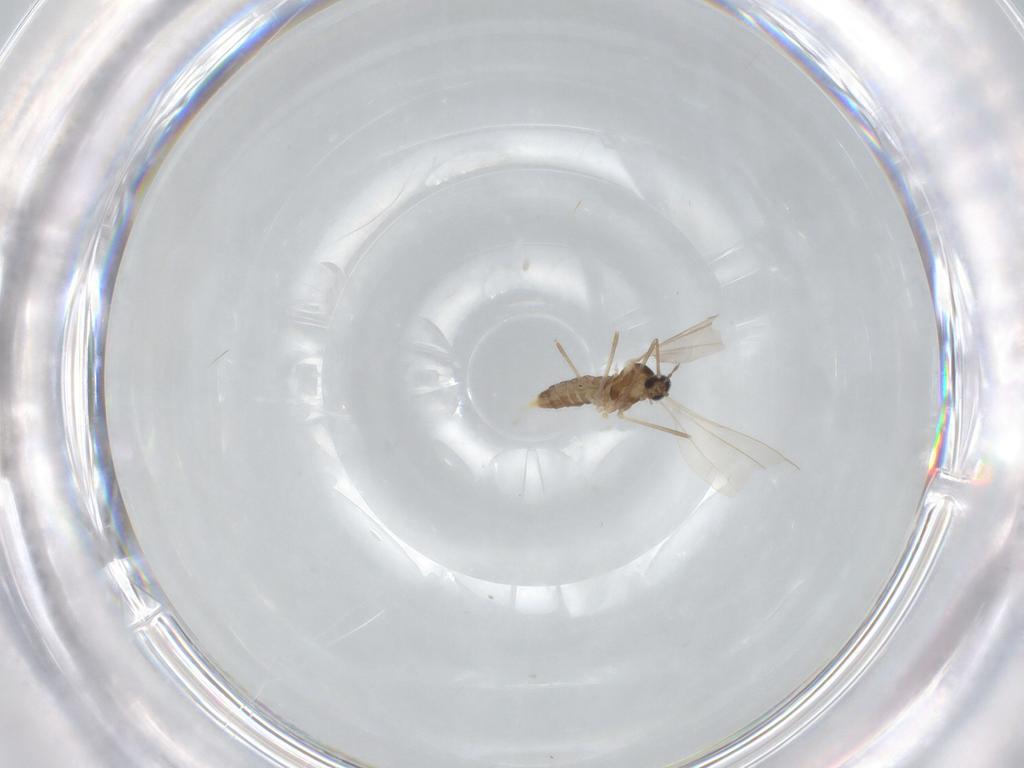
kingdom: Animalia
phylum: Arthropoda
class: Insecta
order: Diptera
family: Cecidomyiidae
